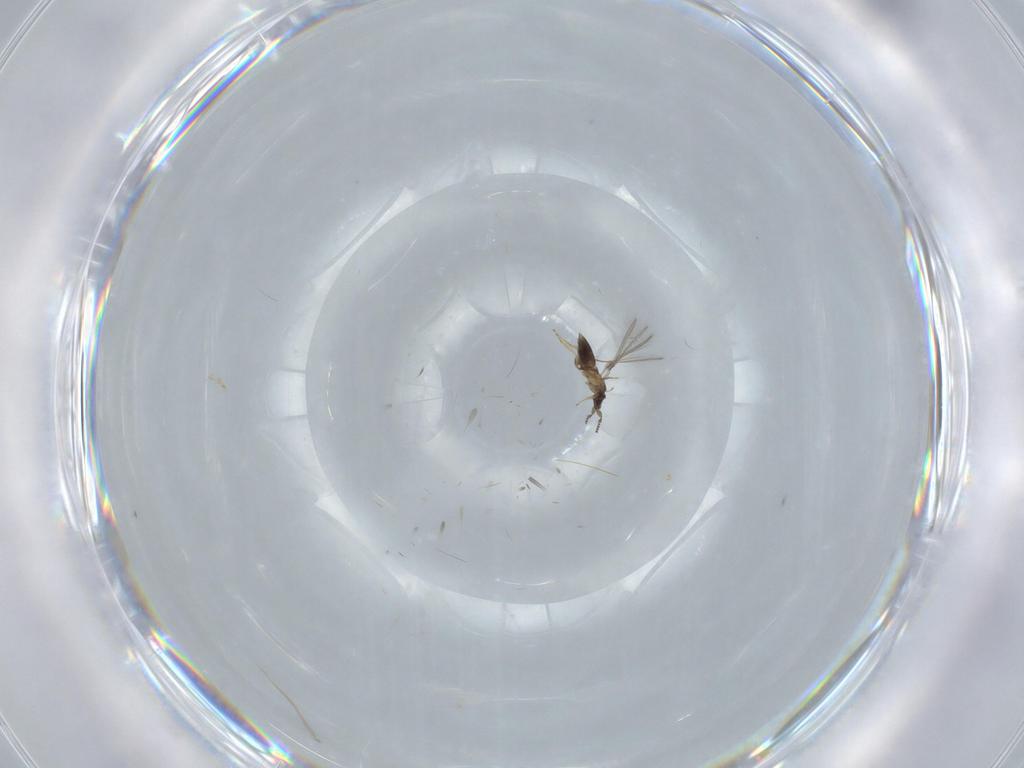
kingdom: Animalia
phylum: Arthropoda
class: Insecta
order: Hymenoptera
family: Mymaridae
